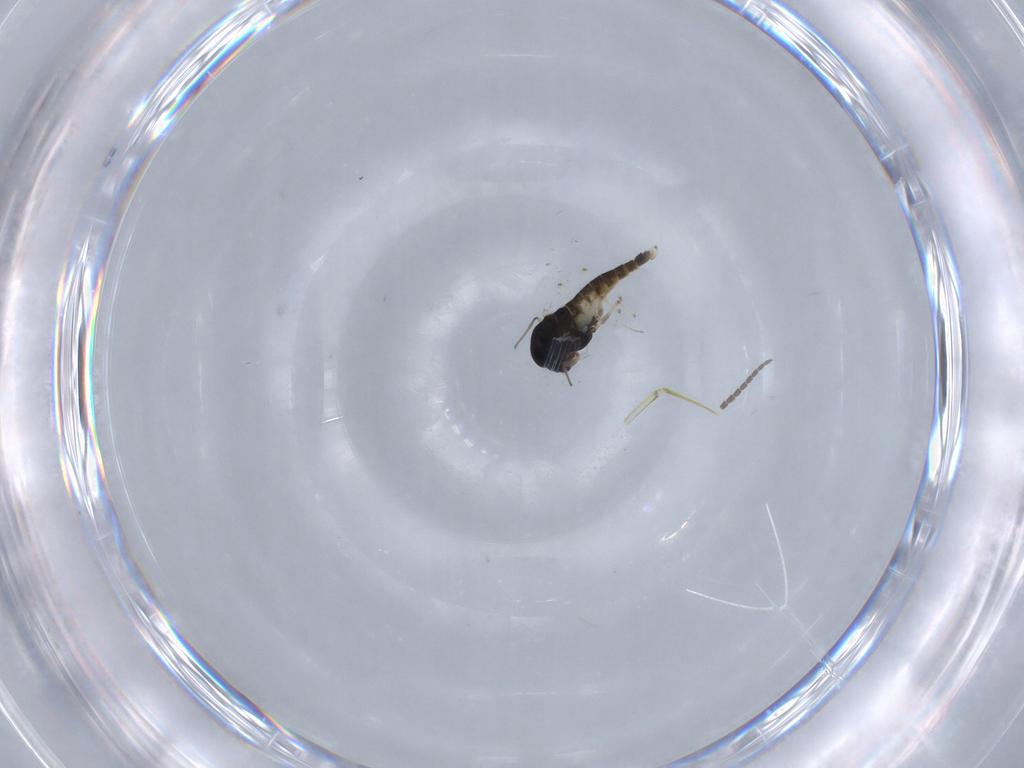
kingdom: Animalia
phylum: Arthropoda
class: Insecta
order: Diptera
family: Chironomidae
